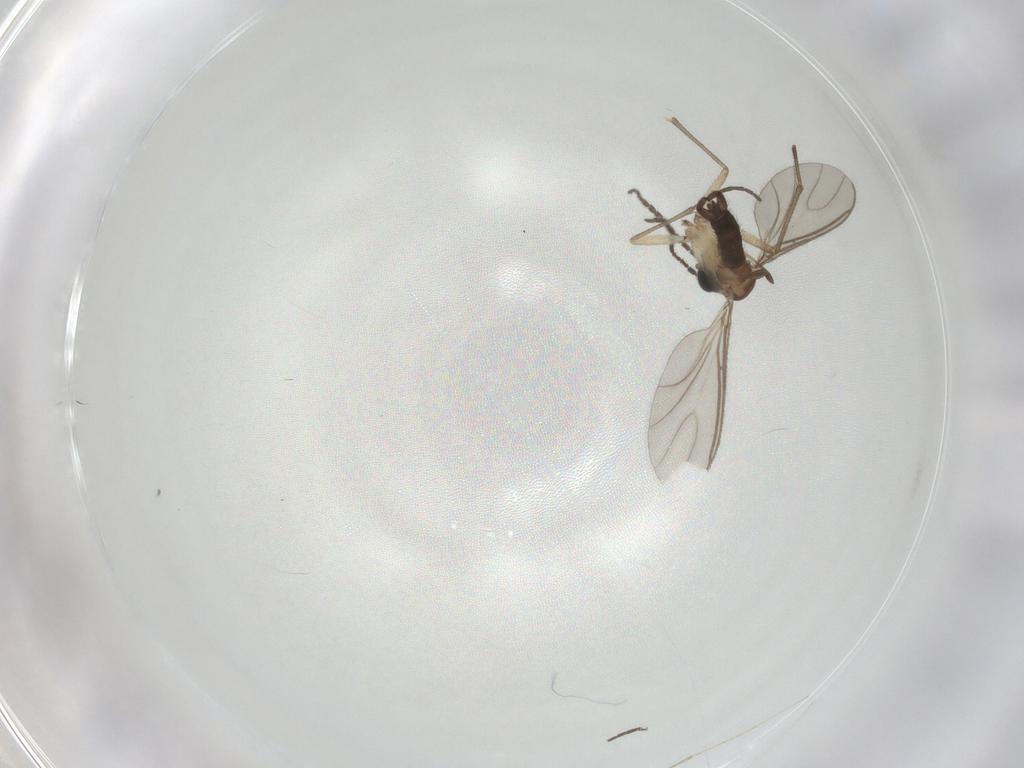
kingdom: Animalia
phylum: Arthropoda
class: Insecta
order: Diptera
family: Sciaridae
